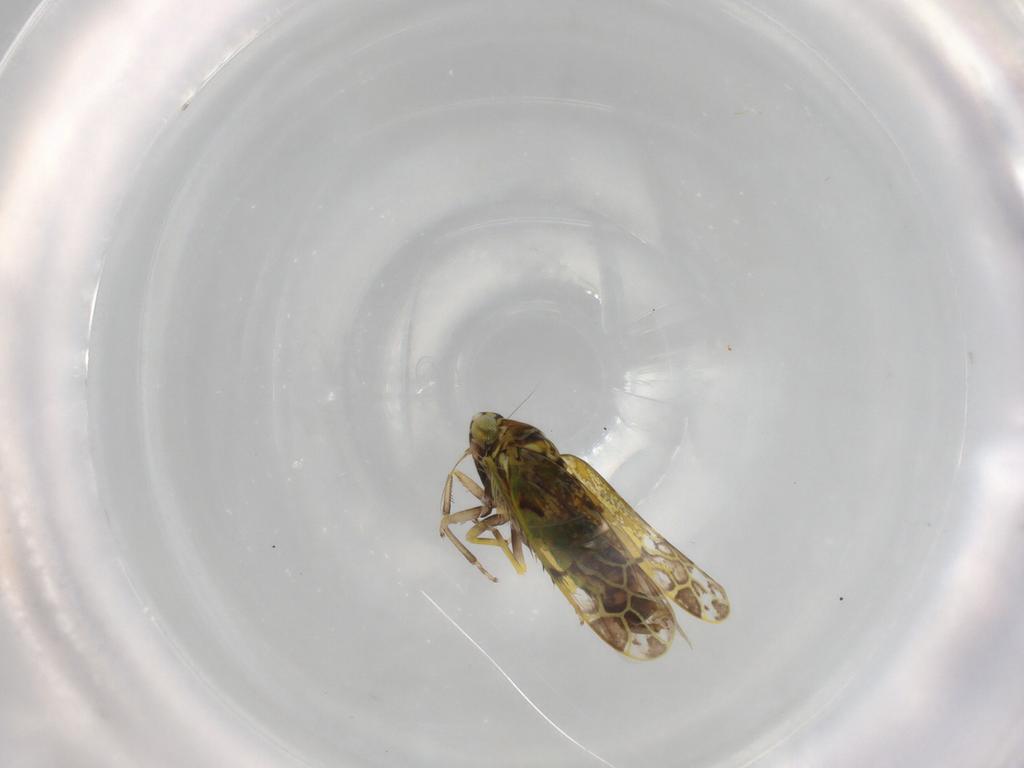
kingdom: Animalia
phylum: Arthropoda
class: Insecta
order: Hemiptera
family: Cicadellidae
